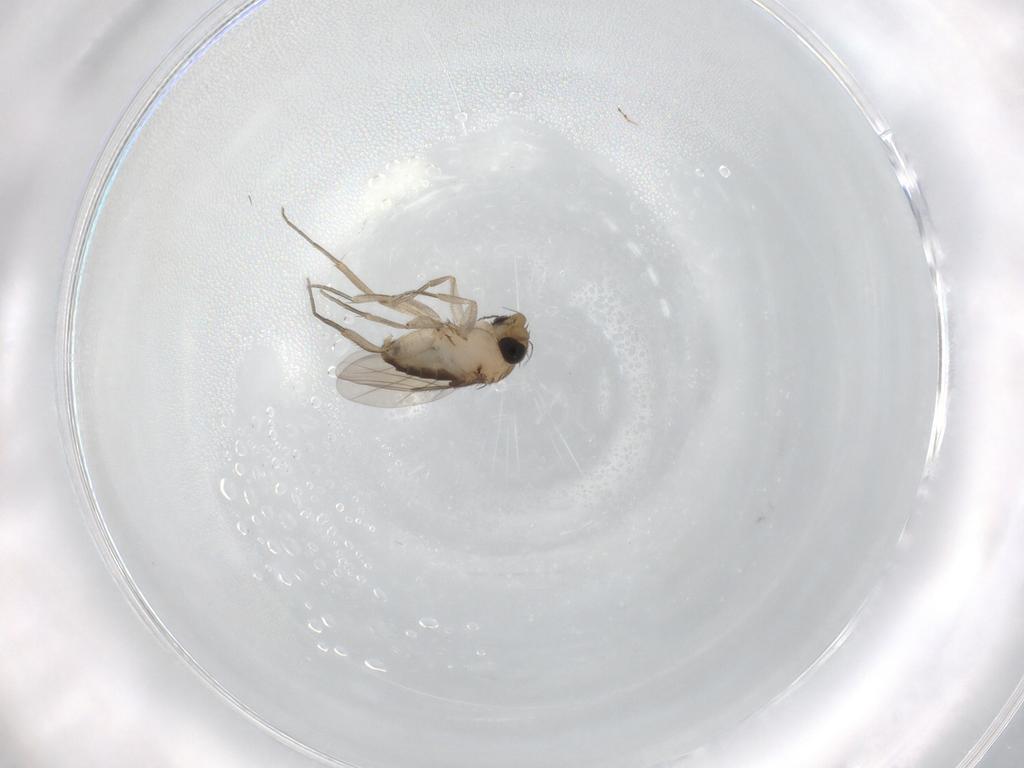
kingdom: Animalia
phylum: Arthropoda
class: Insecta
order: Diptera
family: Phoridae
